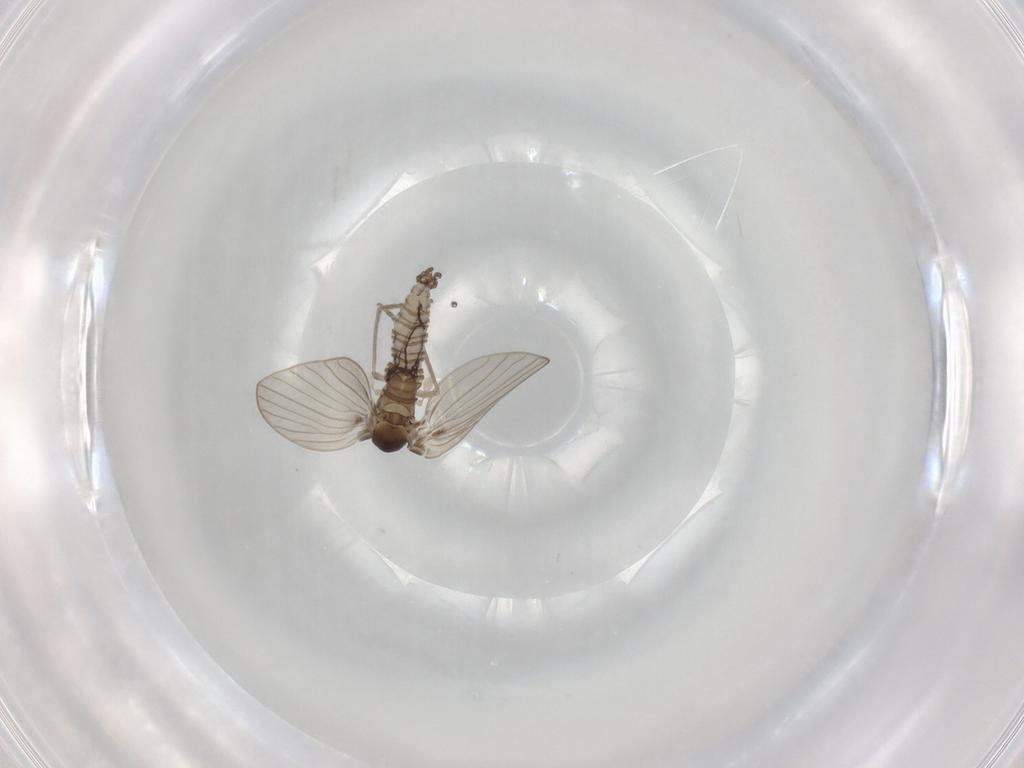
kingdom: Animalia
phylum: Arthropoda
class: Insecta
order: Diptera
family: Psychodidae
